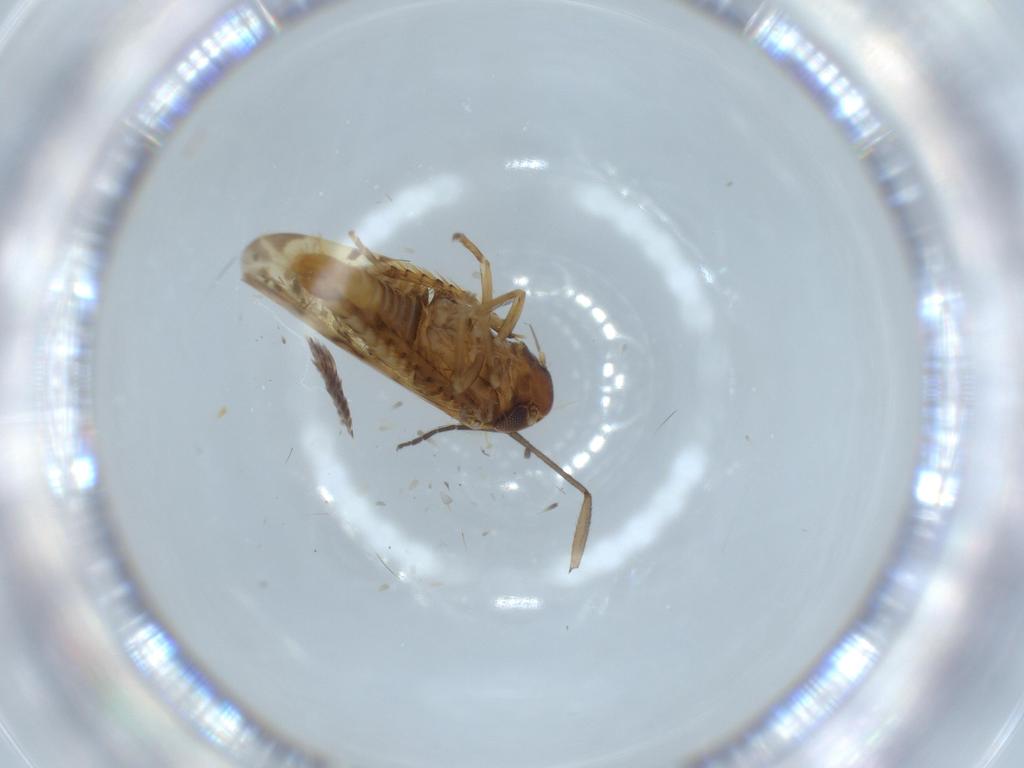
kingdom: Animalia
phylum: Arthropoda
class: Insecta
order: Hemiptera
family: Cicadellidae
